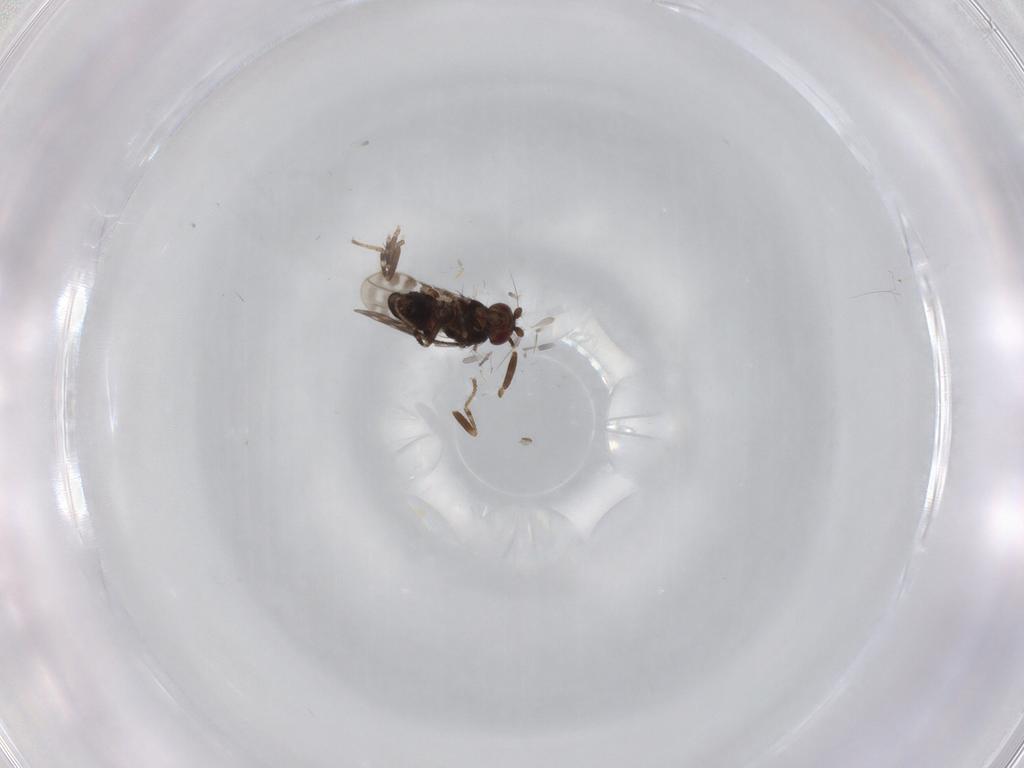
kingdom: Animalia
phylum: Arthropoda
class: Insecta
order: Diptera
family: Sphaeroceridae
